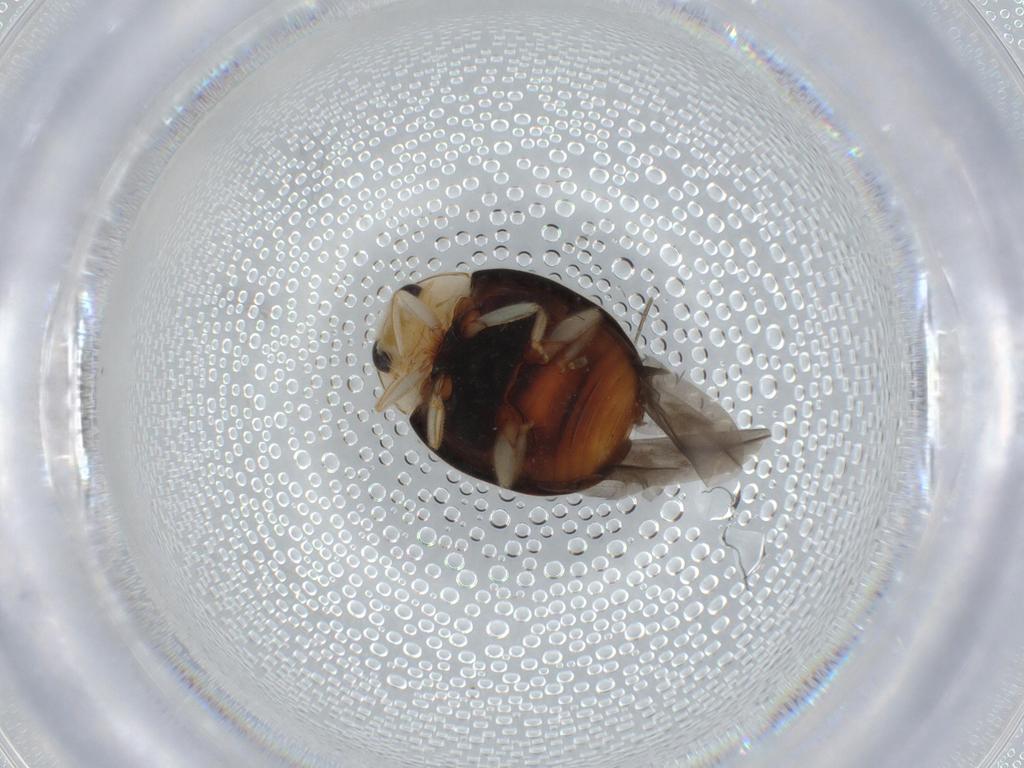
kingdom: Animalia
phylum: Arthropoda
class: Insecta
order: Coleoptera
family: Coccinellidae
